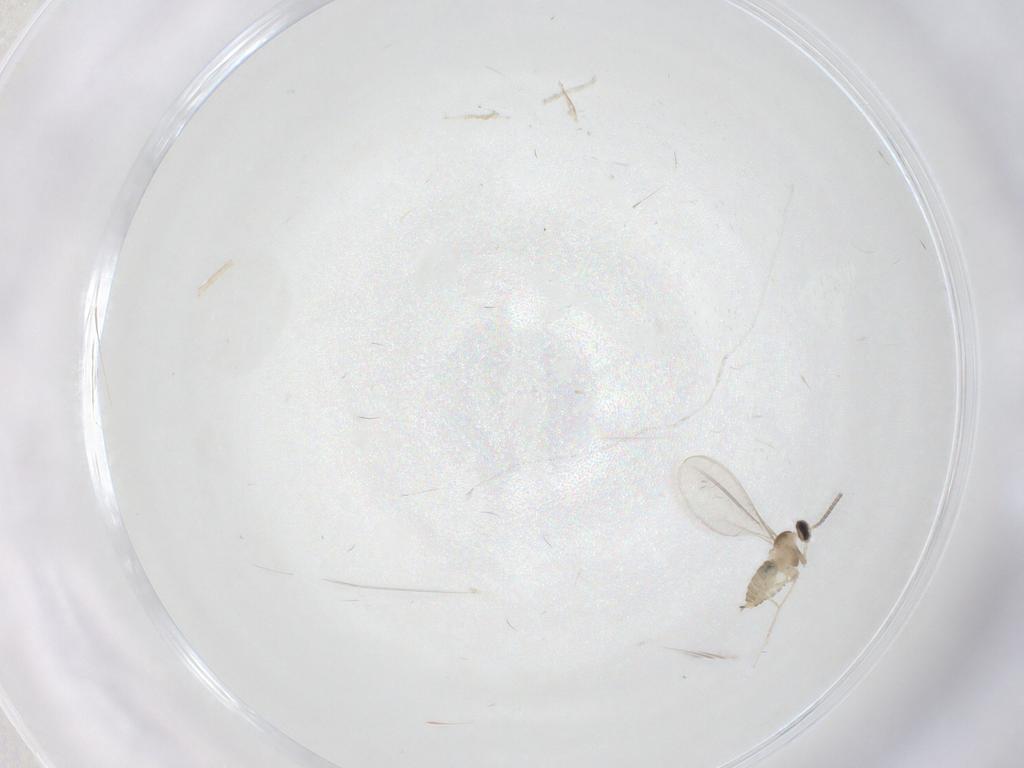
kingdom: Animalia
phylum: Arthropoda
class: Insecta
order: Diptera
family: Cecidomyiidae
